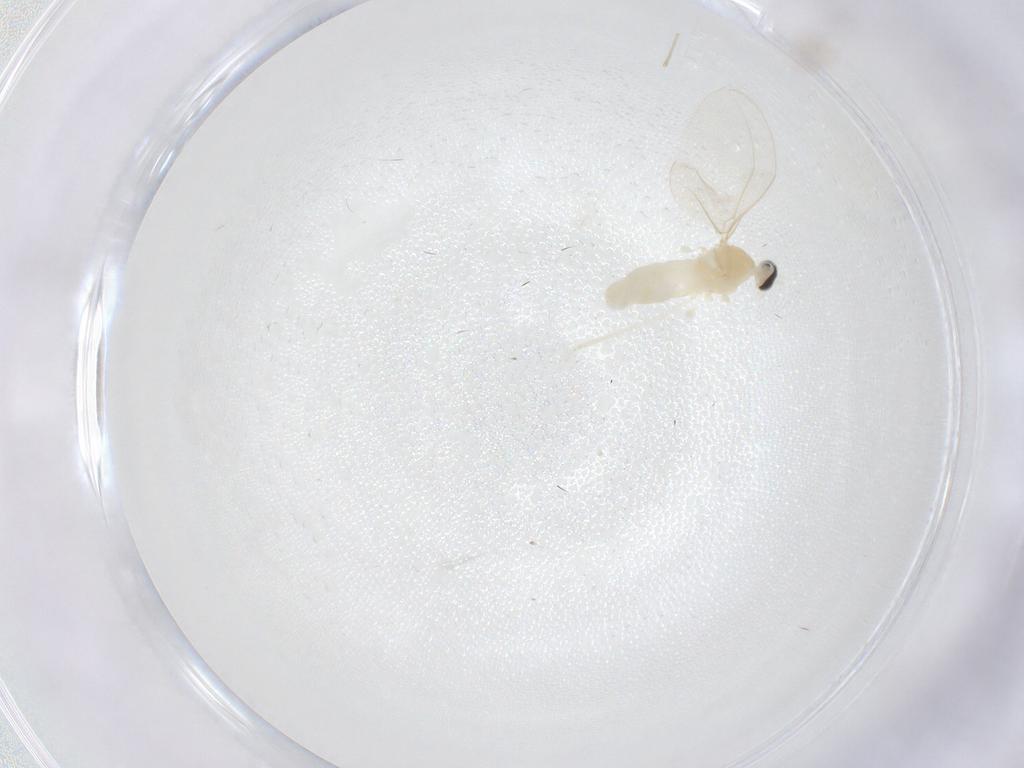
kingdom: Animalia
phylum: Arthropoda
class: Insecta
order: Diptera
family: Cecidomyiidae
